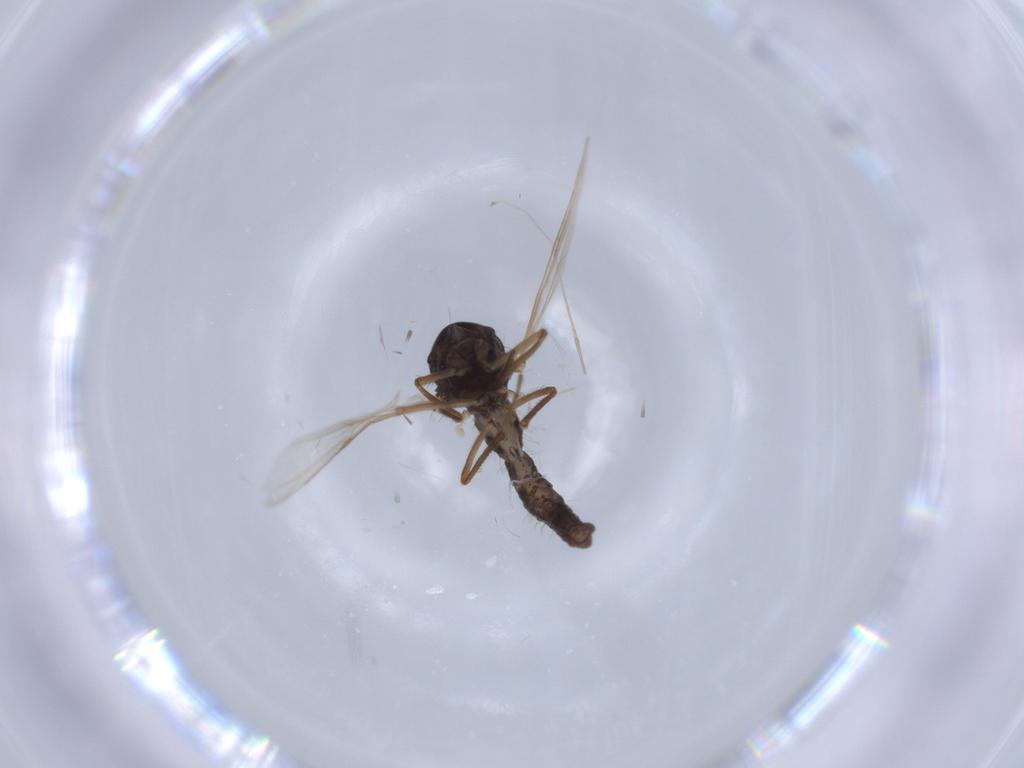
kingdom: Animalia
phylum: Arthropoda
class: Insecta
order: Diptera
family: Ceratopogonidae
